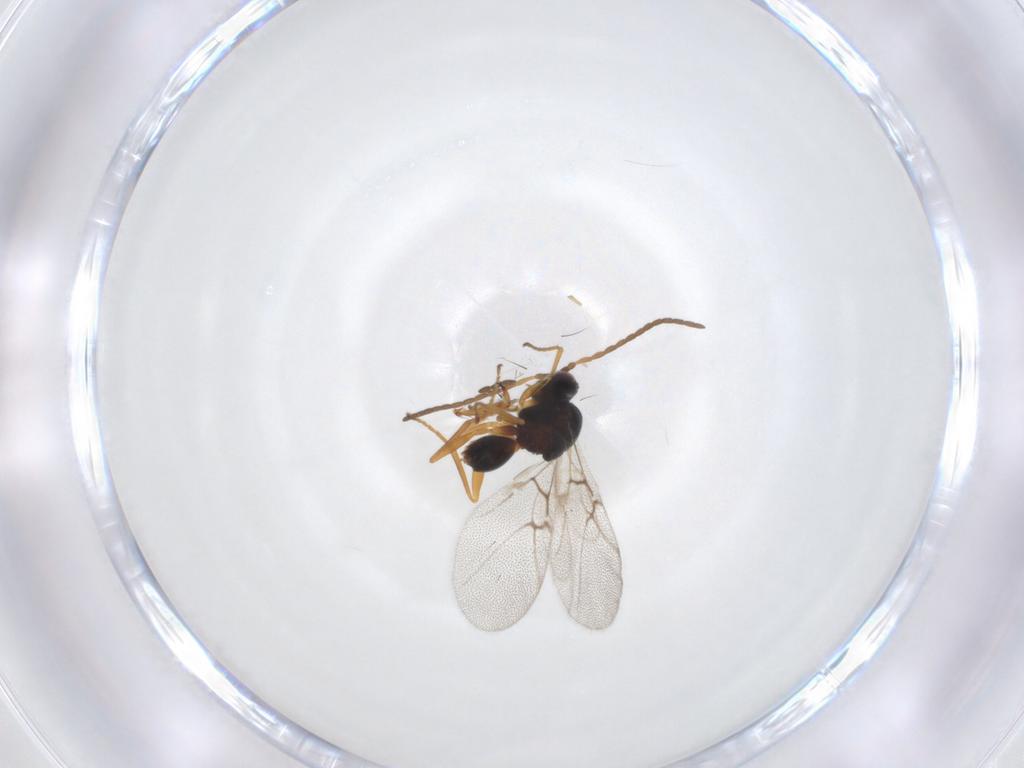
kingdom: Animalia
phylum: Arthropoda
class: Insecta
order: Hymenoptera
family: Cynipidae
